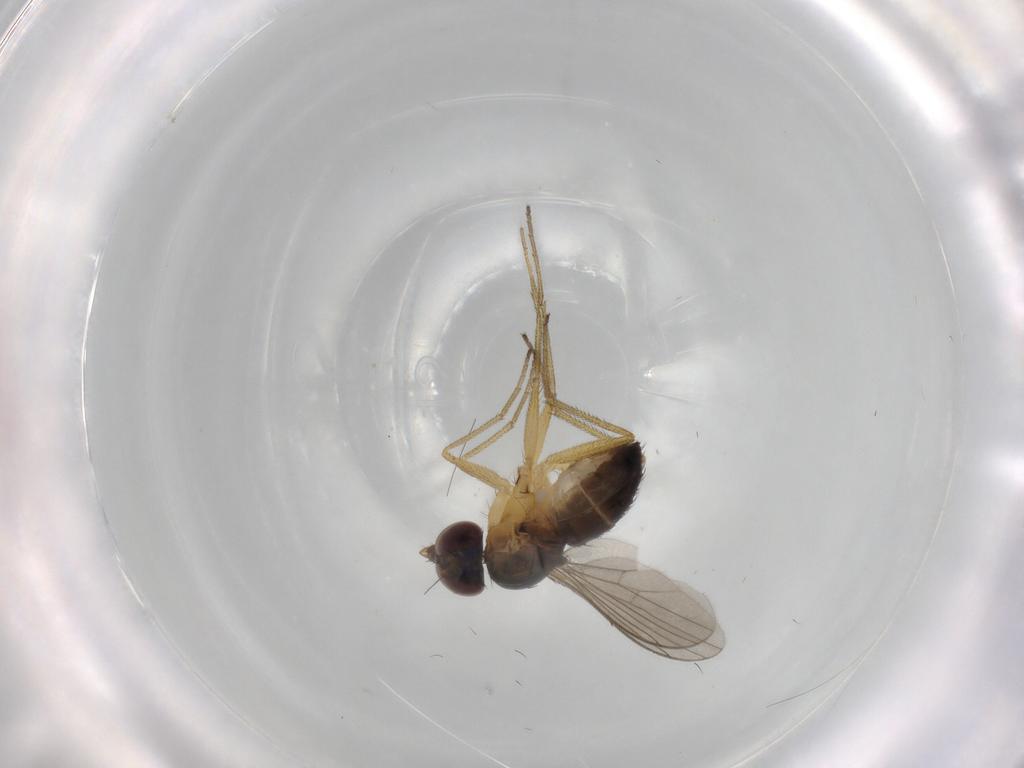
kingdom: Animalia
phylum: Arthropoda
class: Insecta
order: Diptera
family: Dolichopodidae
